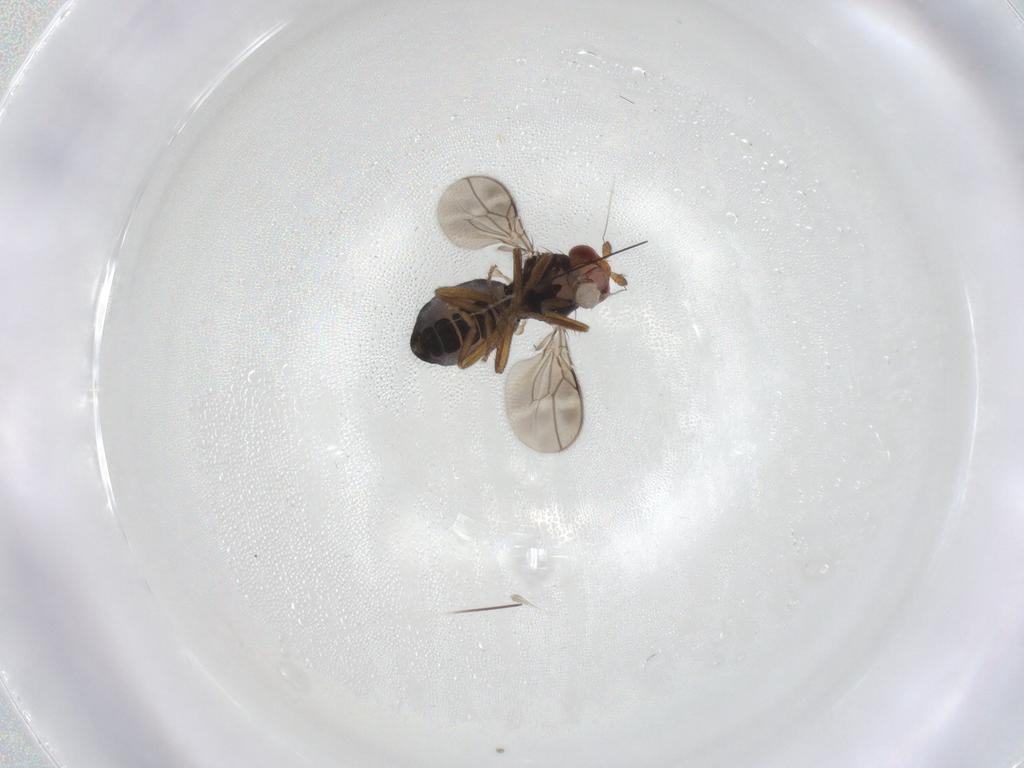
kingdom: Animalia
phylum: Arthropoda
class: Insecta
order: Diptera
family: Sphaeroceridae
